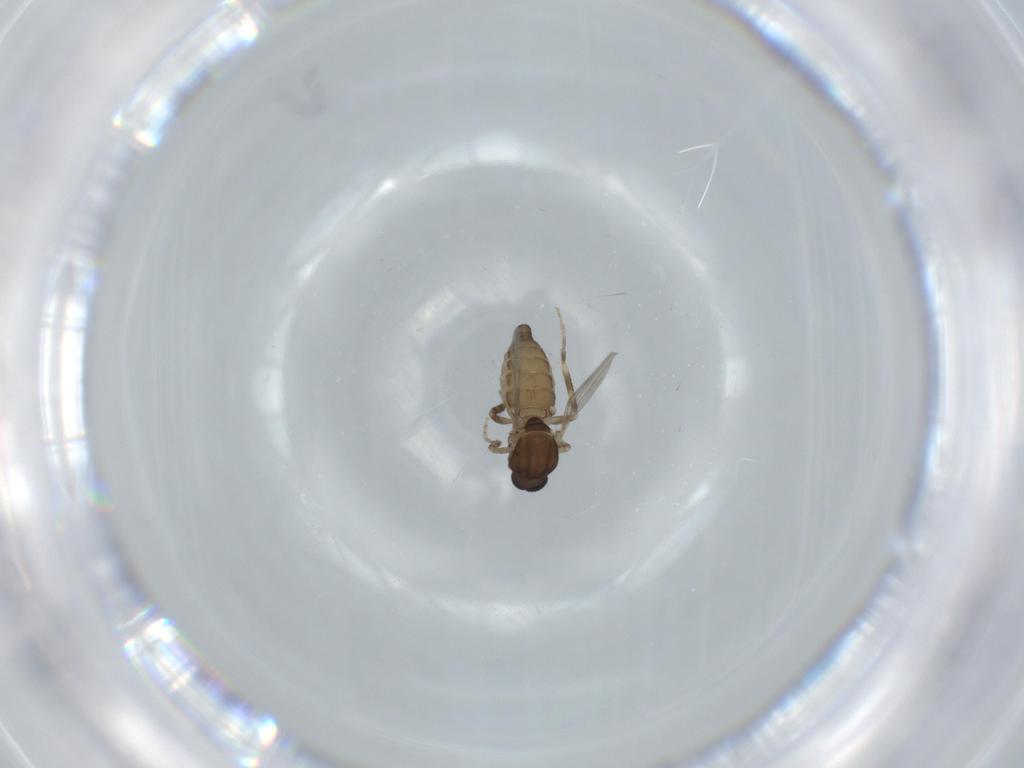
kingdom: Animalia
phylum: Arthropoda
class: Insecta
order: Diptera
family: Ceratopogonidae
